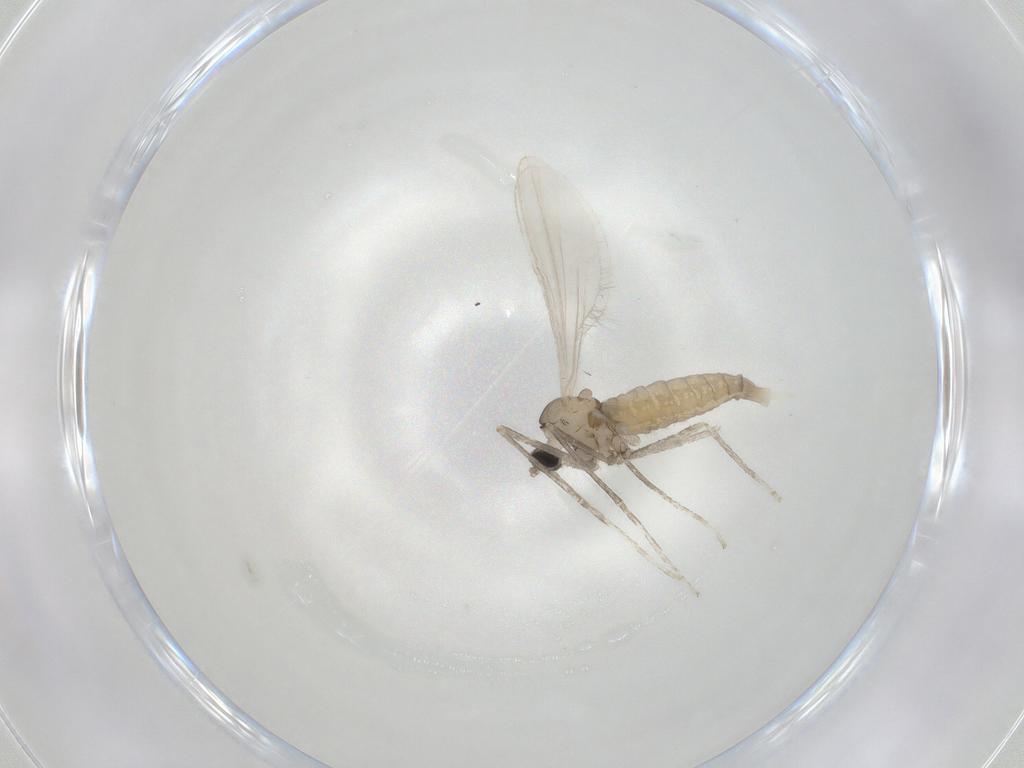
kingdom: Animalia
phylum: Arthropoda
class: Insecta
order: Diptera
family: Cecidomyiidae
